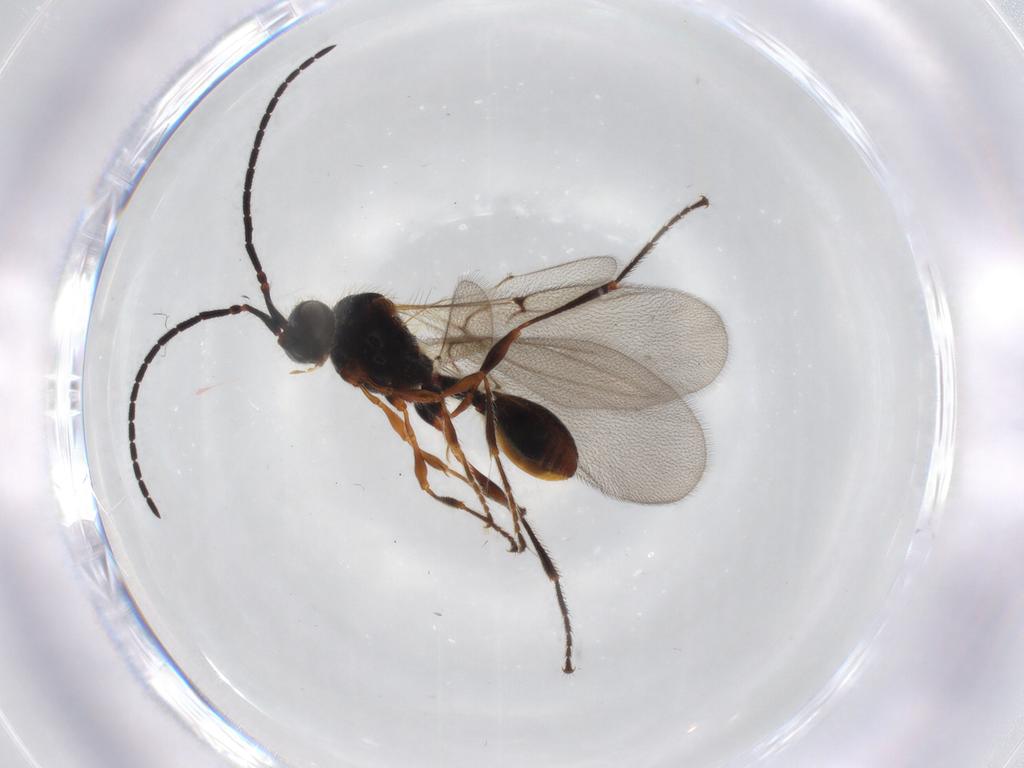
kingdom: Animalia
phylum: Arthropoda
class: Insecta
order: Hymenoptera
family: Diapriidae
